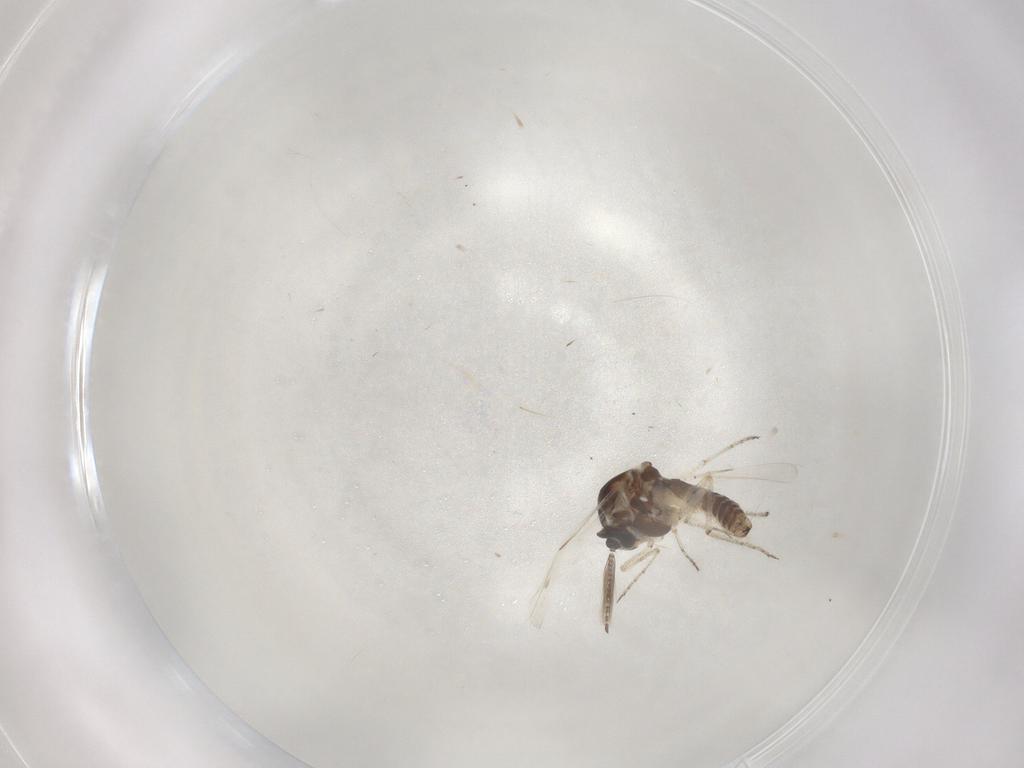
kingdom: Animalia
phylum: Arthropoda
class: Insecta
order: Diptera
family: Ceratopogonidae
